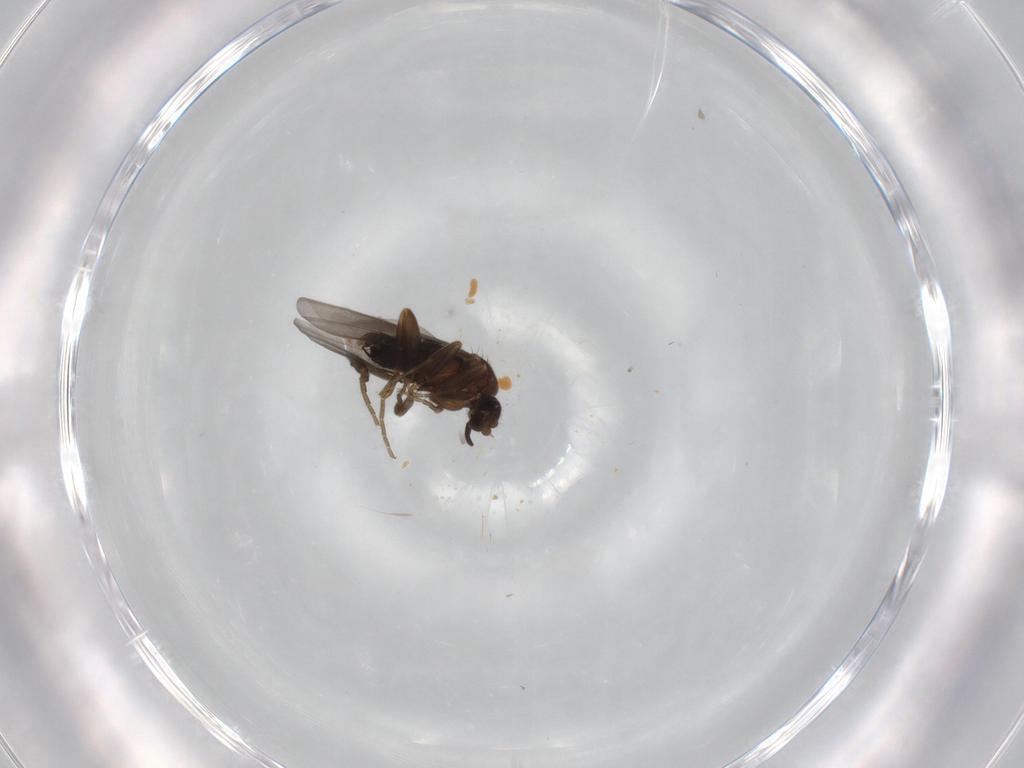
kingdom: Animalia
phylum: Arthropoda
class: Insecta
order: Diptera
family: Phoridae
